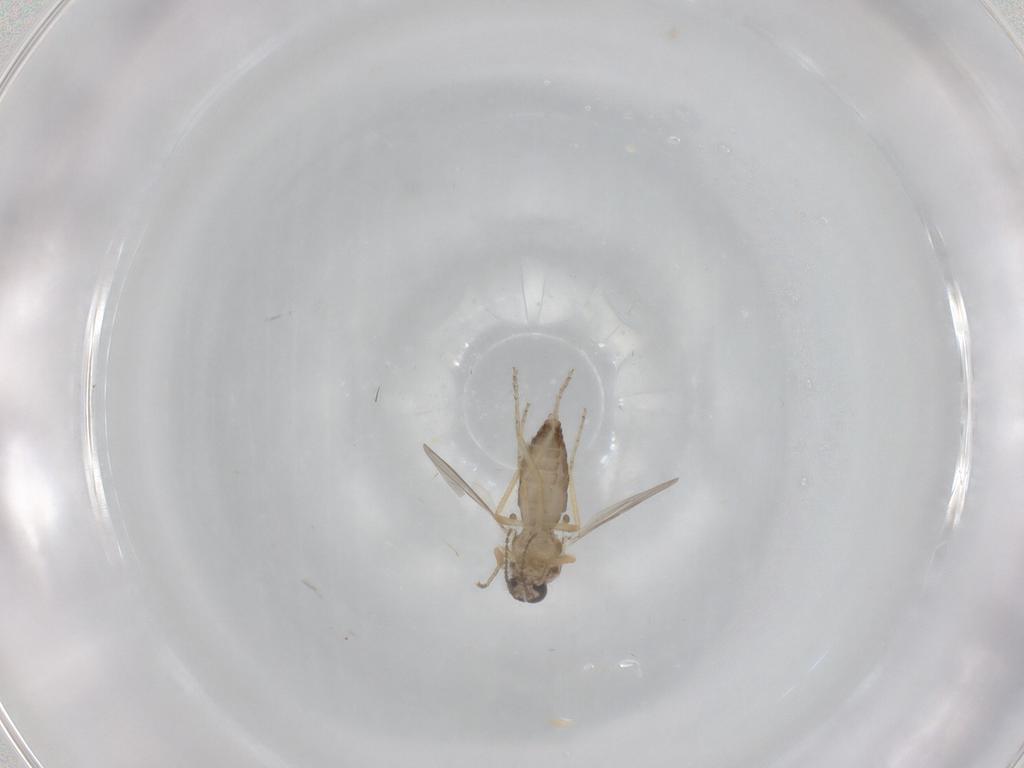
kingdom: Animalia
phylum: Arthropoda
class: Insecta
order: Diptera
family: Ceratopogonidae
